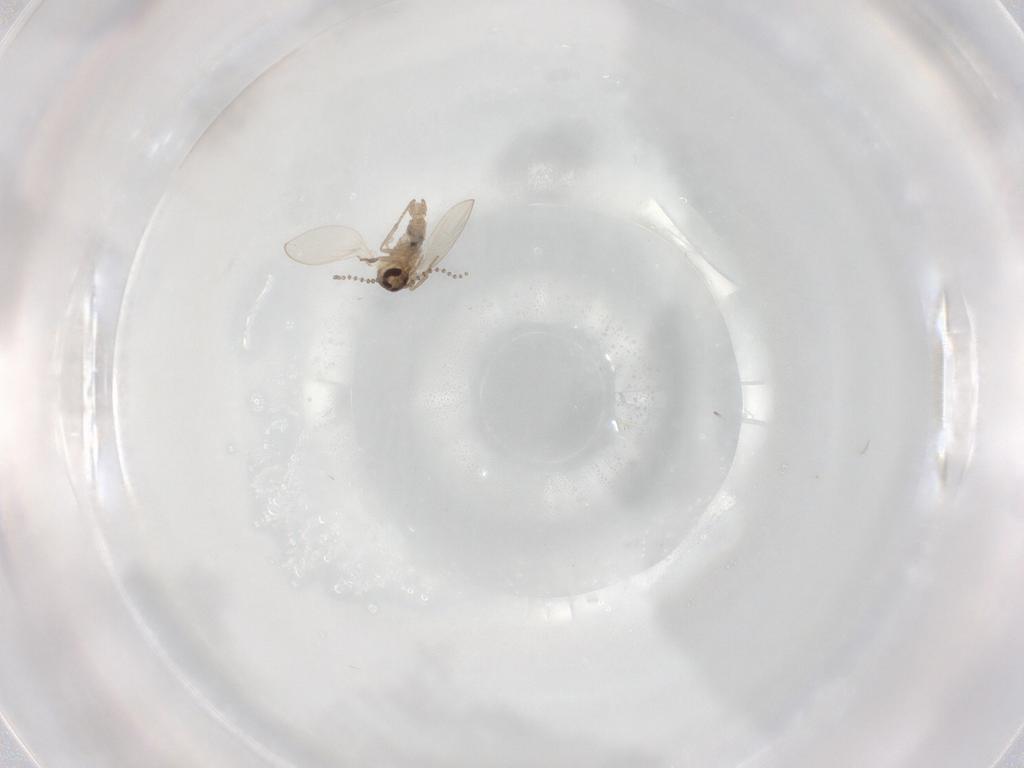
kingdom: Animalia
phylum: Arthropoda
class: Insecta
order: Diptera
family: Psychodidae
